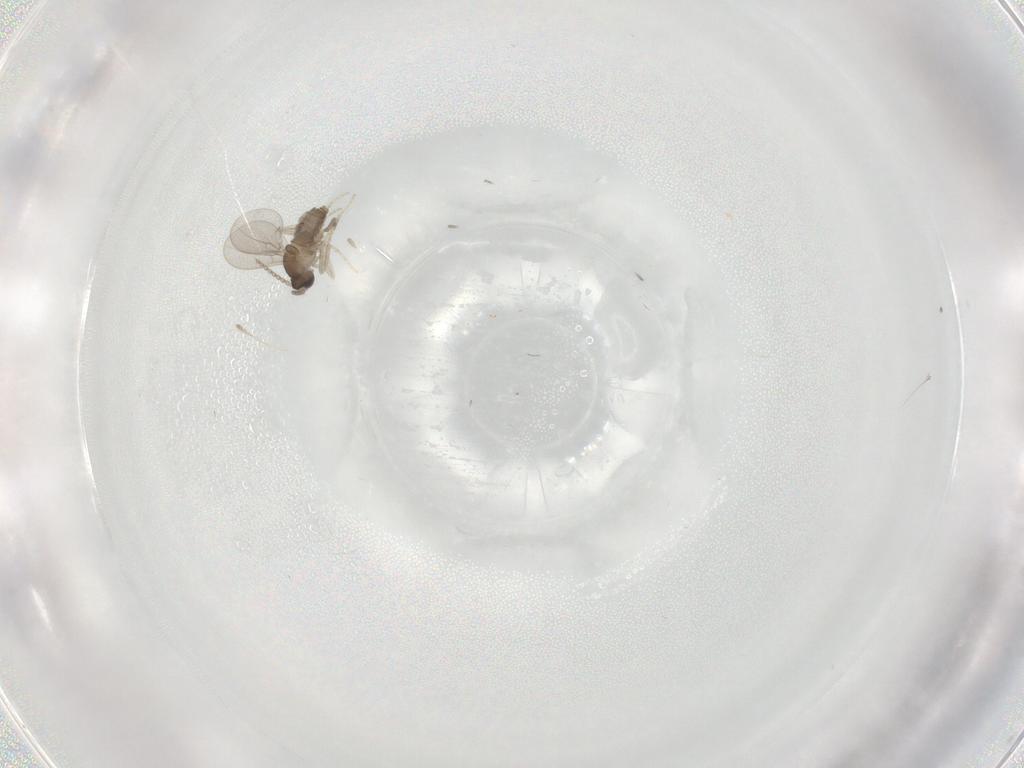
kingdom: Animalia
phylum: Arthropoda
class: Insecta
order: Diptera
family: Cecidomyiidae
